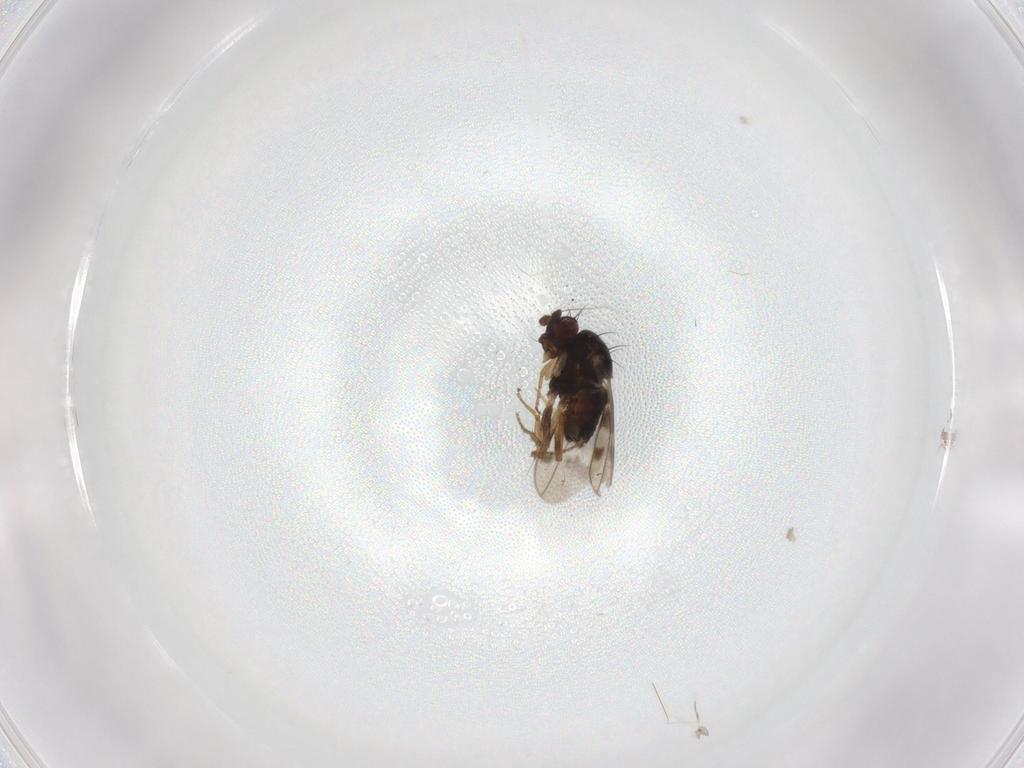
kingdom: Animalia
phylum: Arthropoda
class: Insecta
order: Diptera
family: Sphaeroceridae
